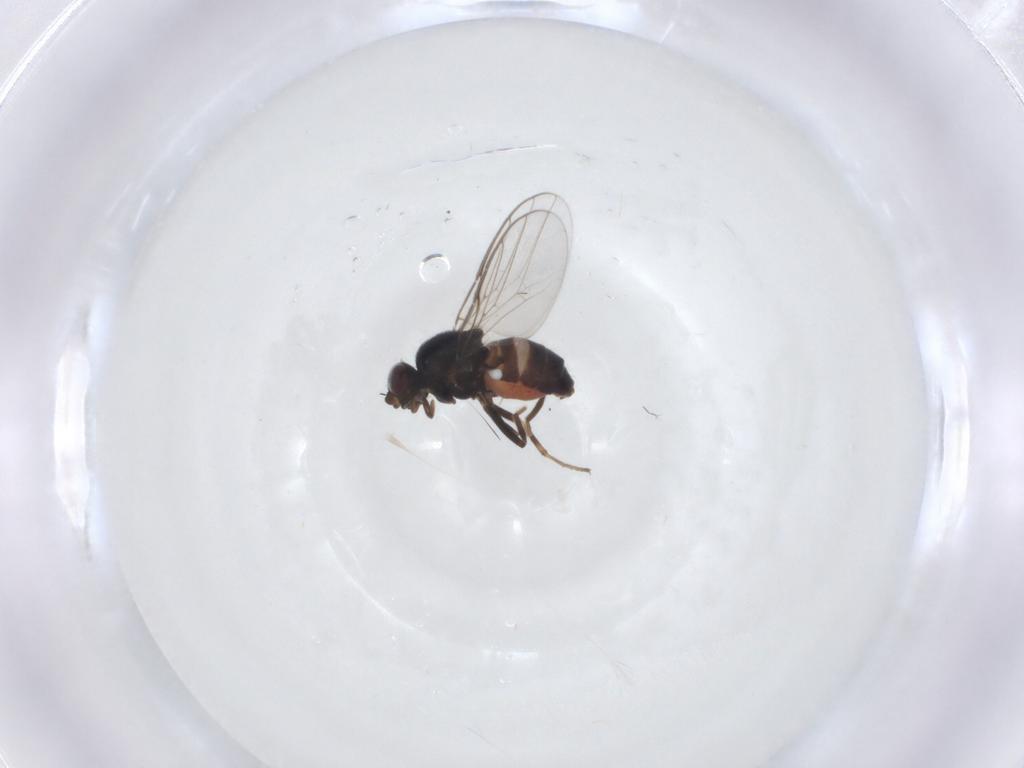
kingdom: Animalia
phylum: Arthropoda
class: Insecta
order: Diptera
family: Chloropidae
